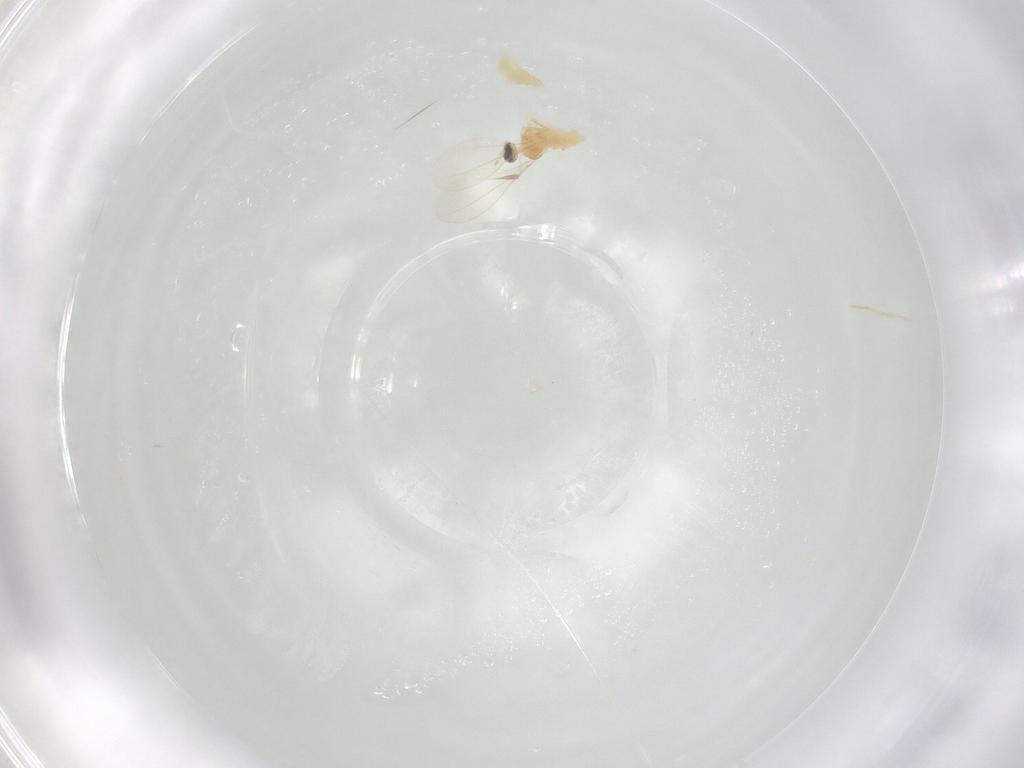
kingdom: Animalia
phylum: Arthropoda
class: Insecta
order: Diptera
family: Cecidomyiidae
